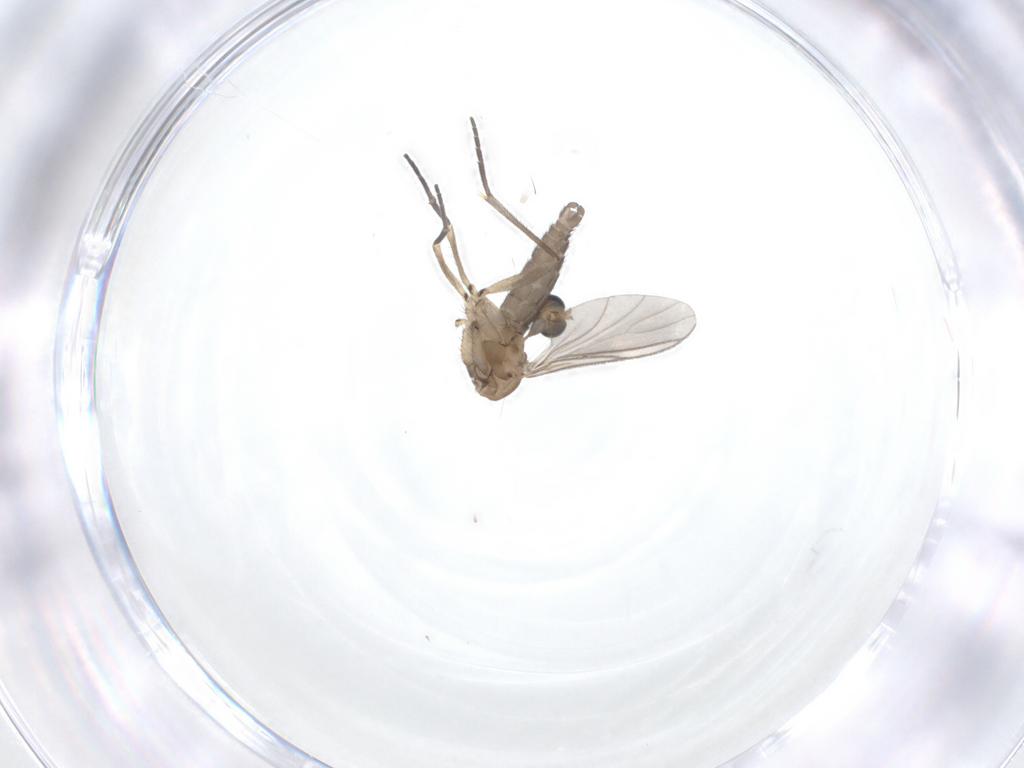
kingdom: Animalia
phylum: Arthropoda
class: Insecta
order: Diptera
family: Sciaridae
